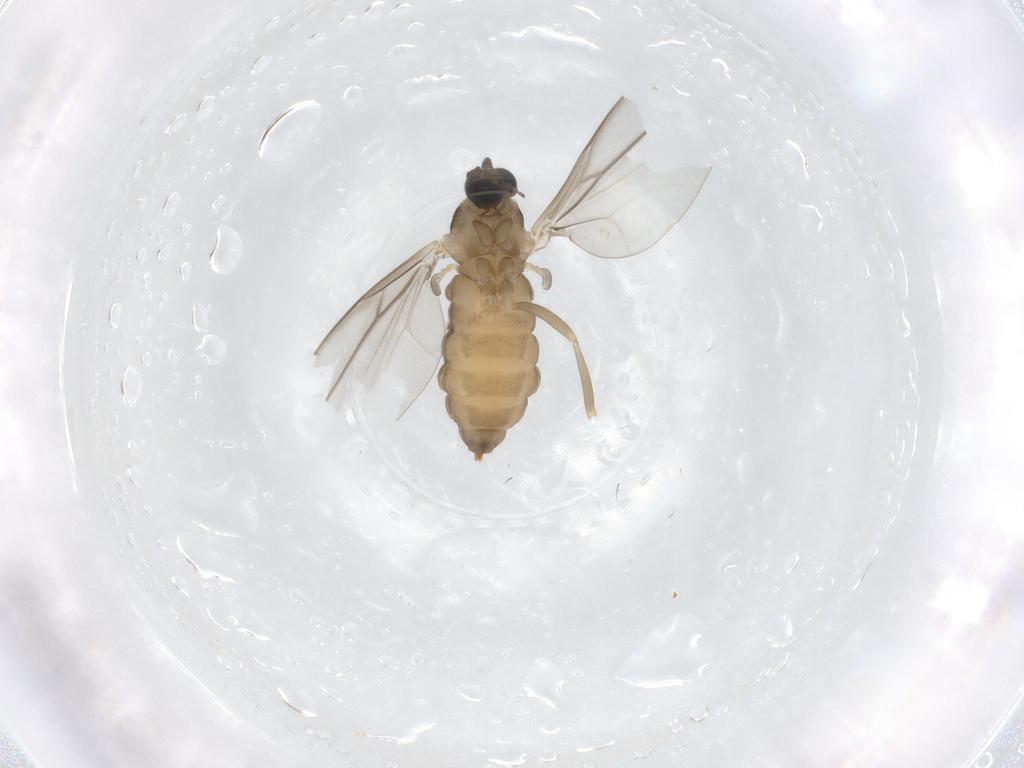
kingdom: Animalia
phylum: Arthropoda
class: Insecta
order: Diptera
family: Cecidomyiidae
